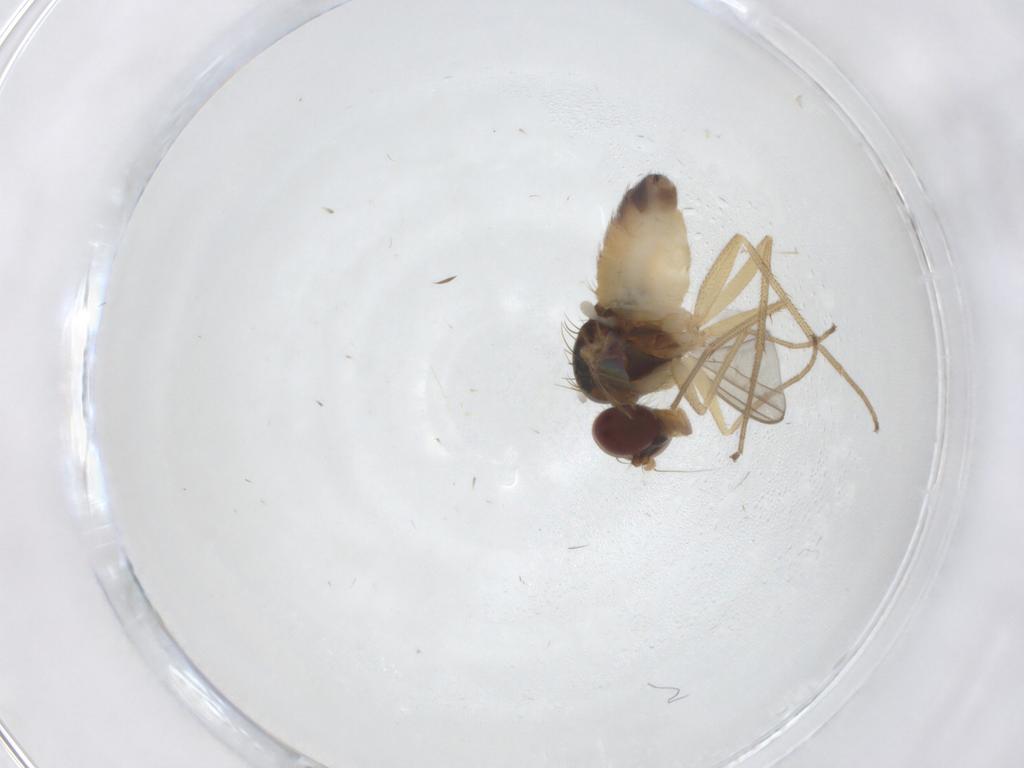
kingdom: Animalia
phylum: Arthropoda
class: Insecta
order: Diptera
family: Dolichopodidae
